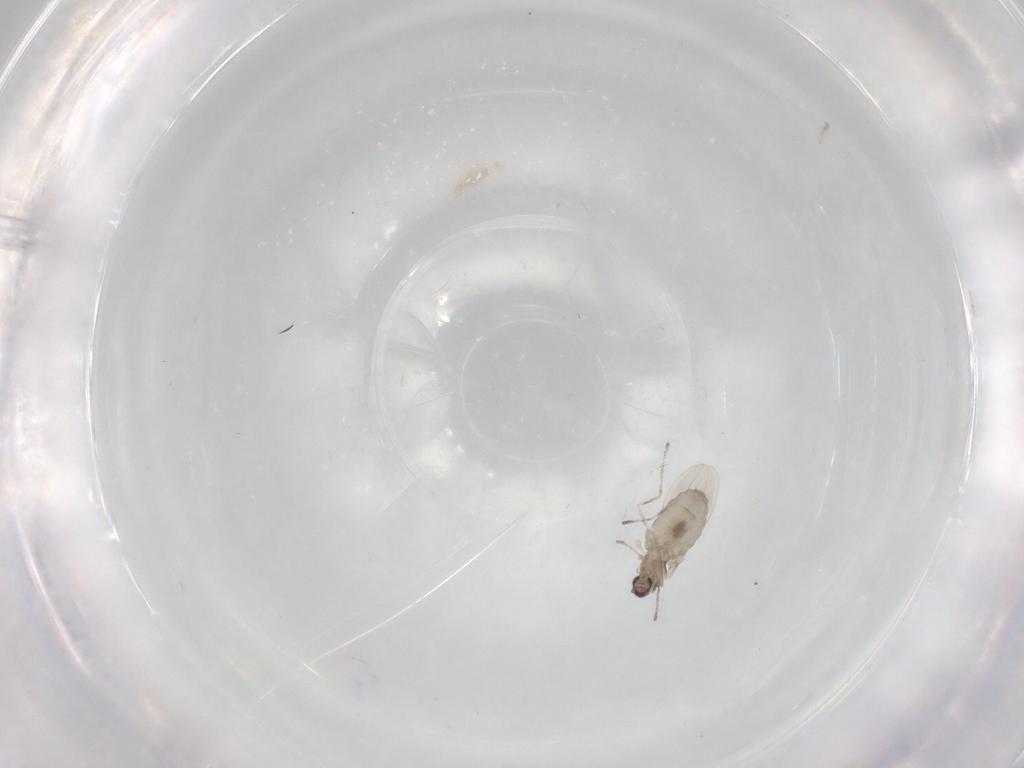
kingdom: Animalia
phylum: Arthropoda
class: Insecta
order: Diptera
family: Cecidomyiidae
